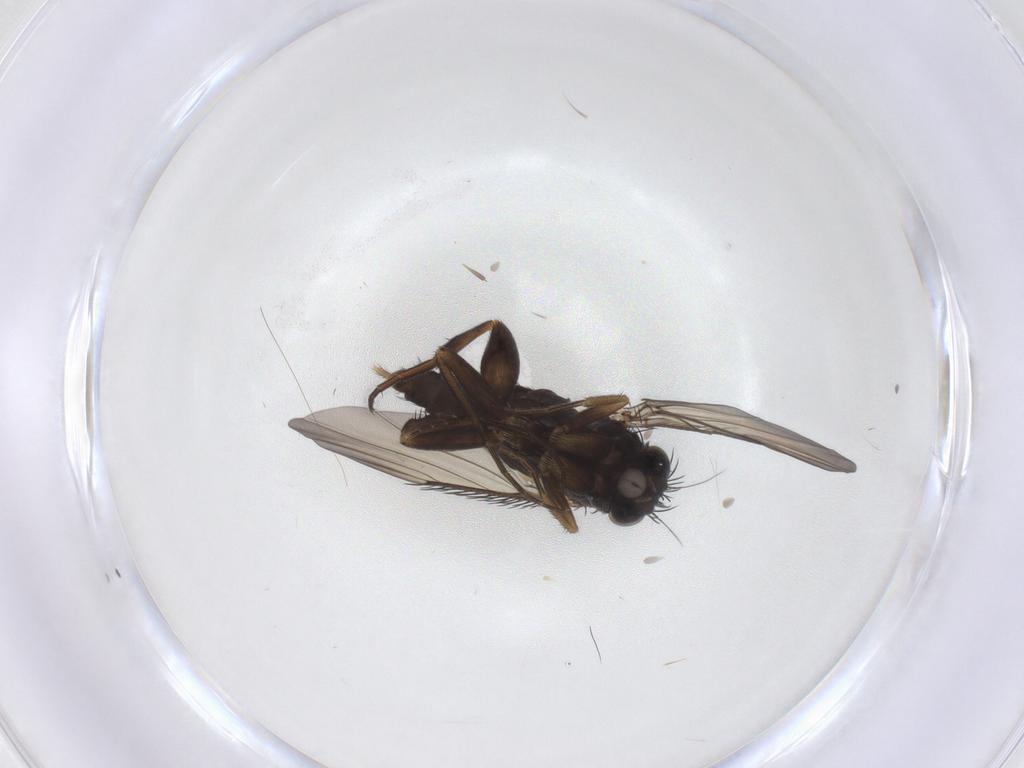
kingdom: Animalia
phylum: Arthropoda
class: Insecta
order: Diptera
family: Phoridae
